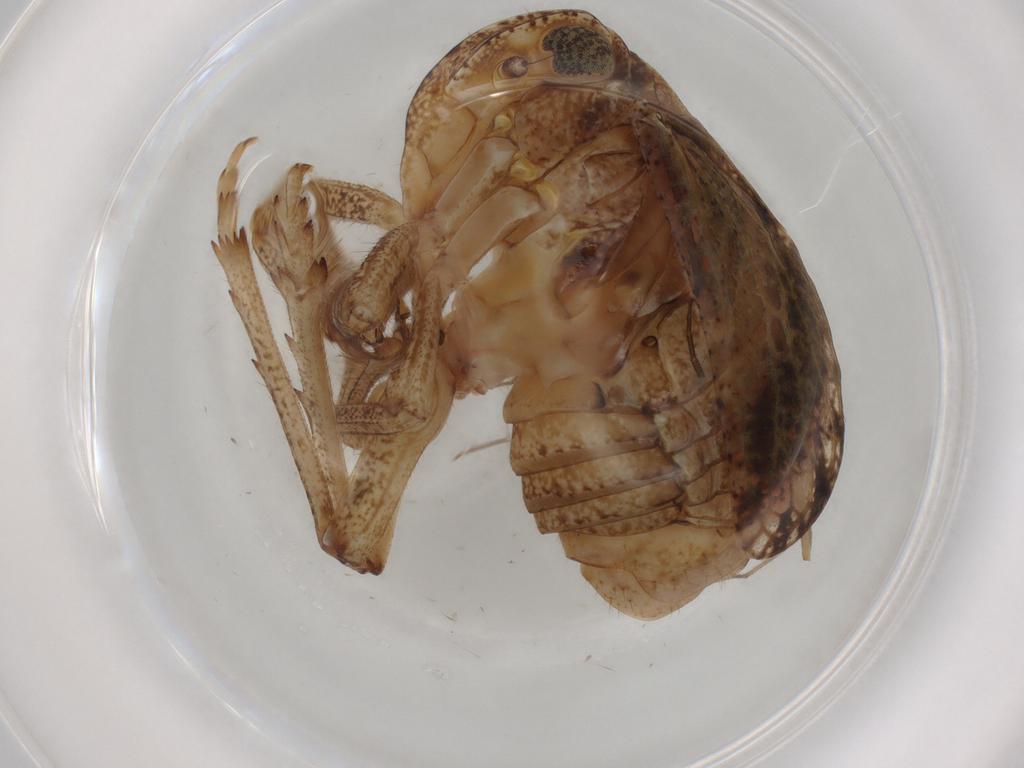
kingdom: Animalia
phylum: Arthropoda
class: Insecta
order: Hemiptera
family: Tropiduchidae
